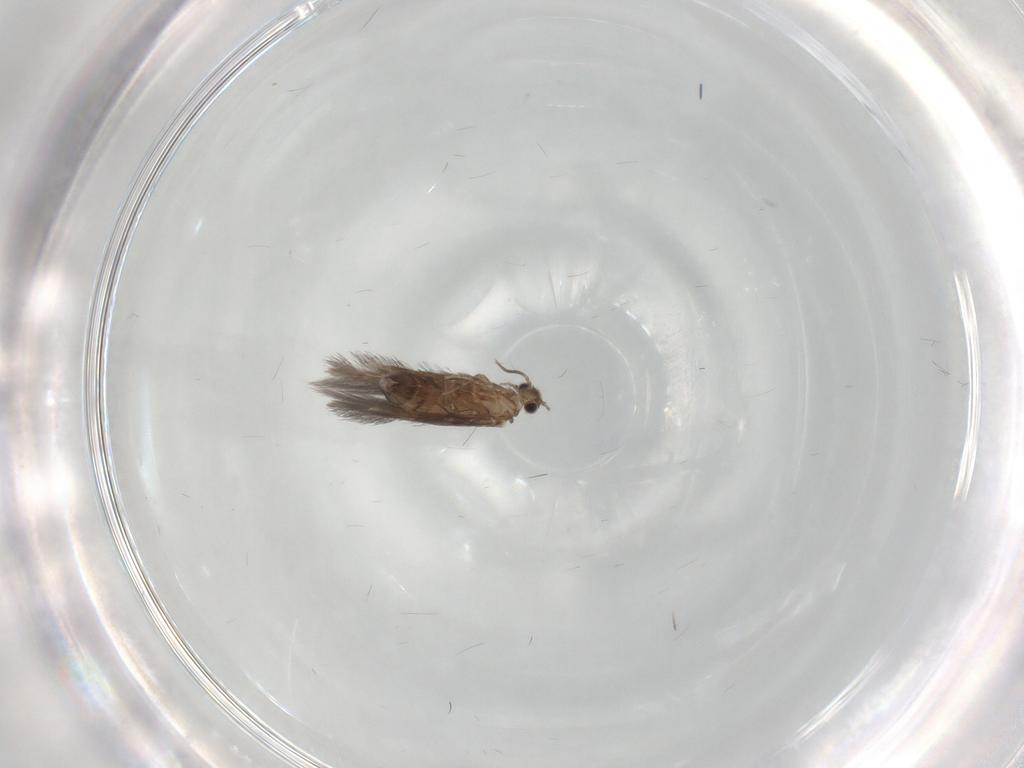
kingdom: Animalia
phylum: Arthropoda
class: Insecta
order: Trichoptera
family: Hydroptilidae
